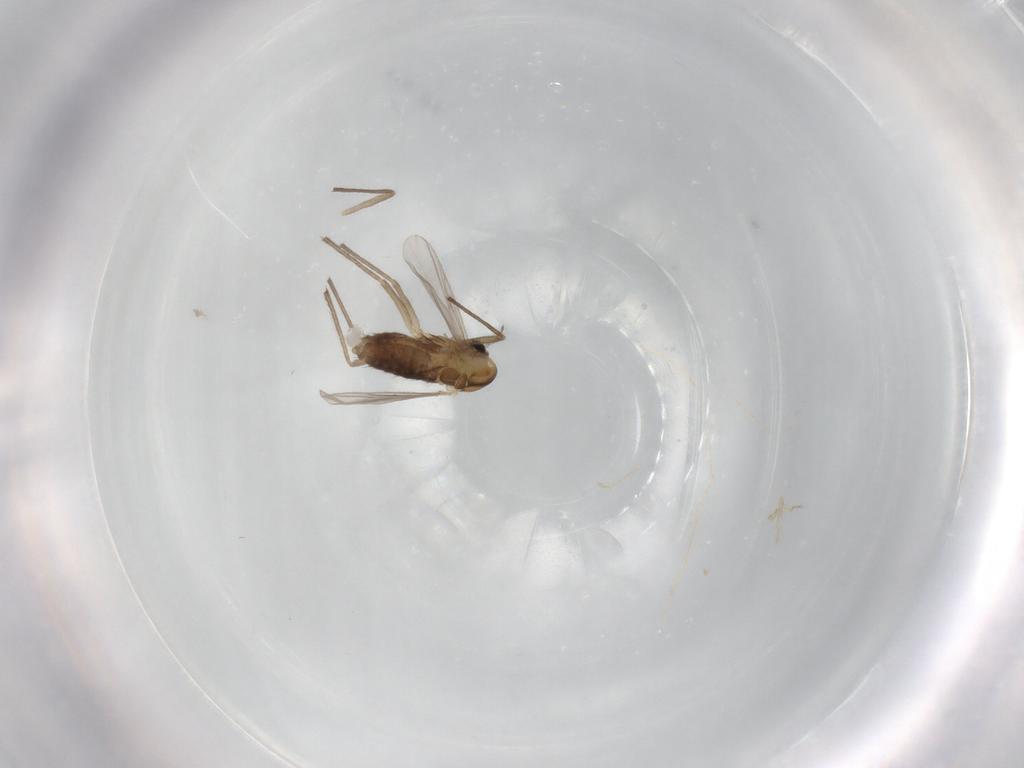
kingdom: Animalia
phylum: Arthropoda
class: Insecta
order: Diptera
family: Chironomidae
